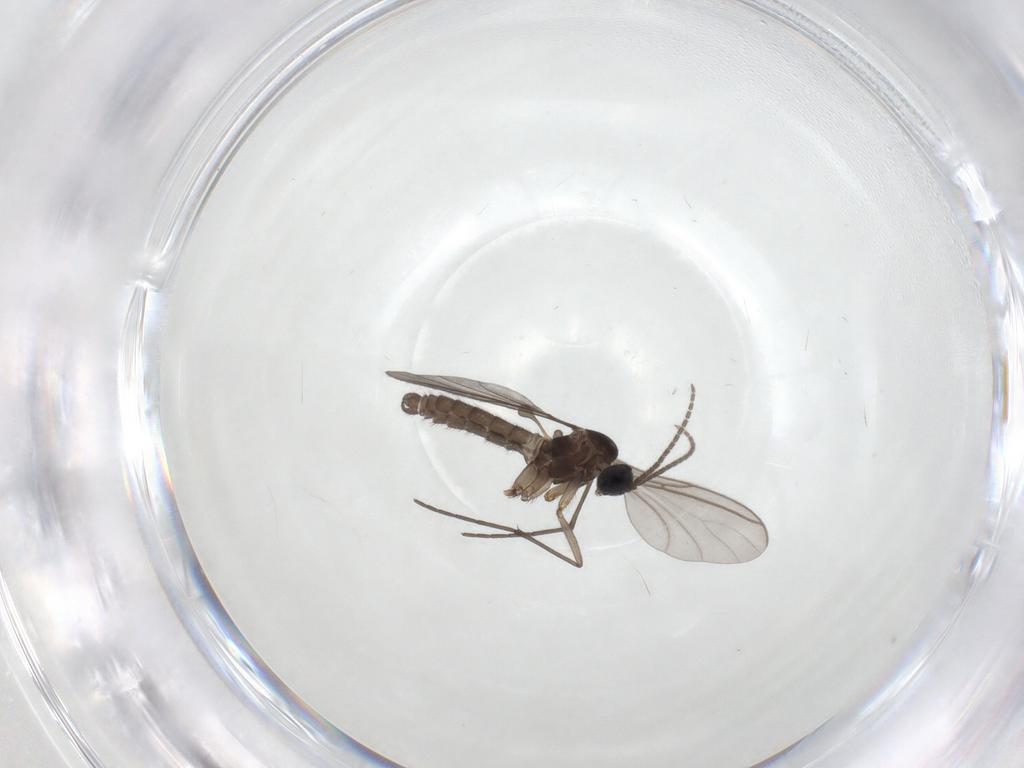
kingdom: Animalia
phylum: Arthropoda
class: Insecta
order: Diptera
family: Sciaridae
